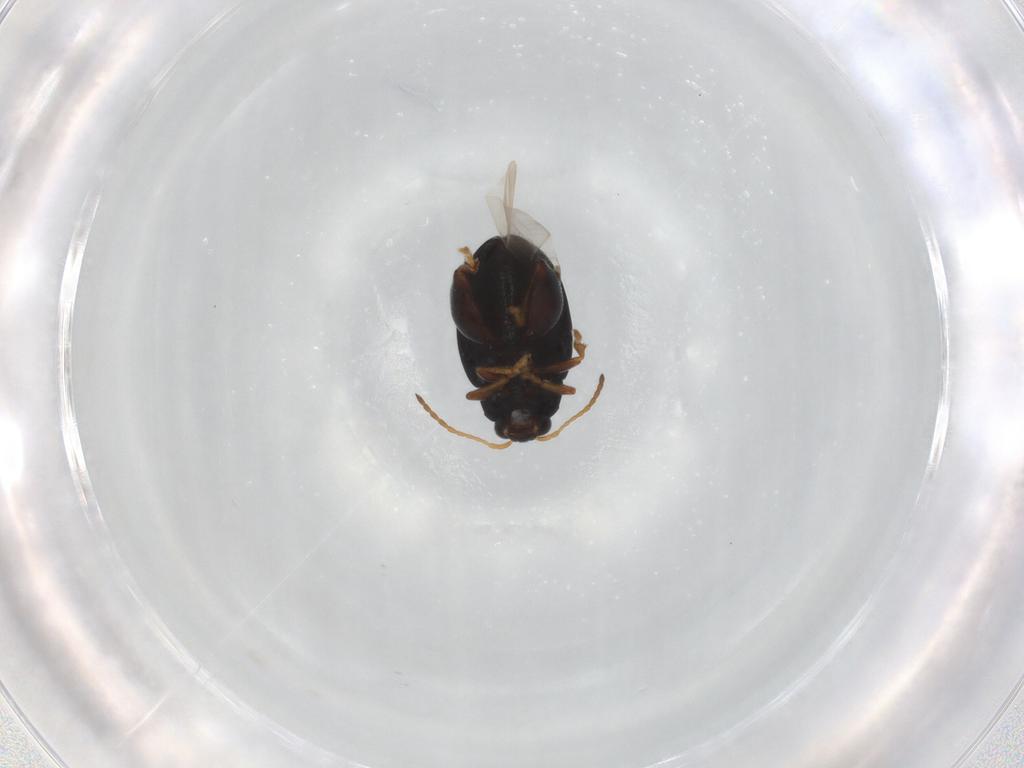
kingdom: Animalia
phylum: Arthropoda
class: Insecta
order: Coleoptera
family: Chrysomelidae
